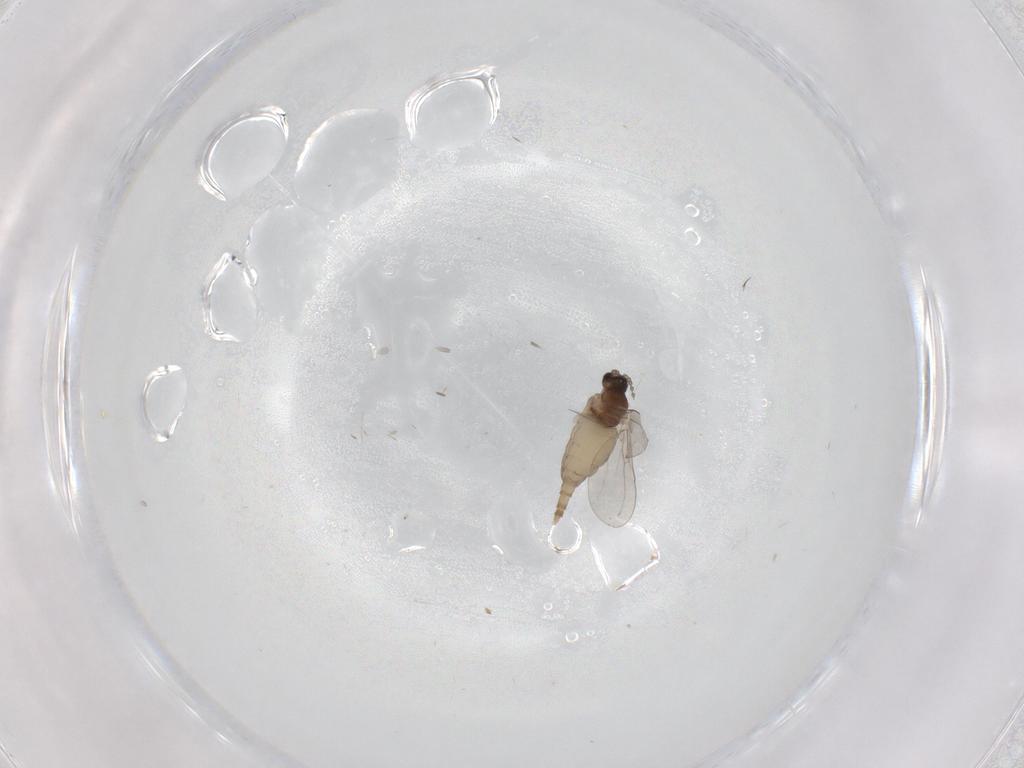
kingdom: Animalia
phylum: Arthropoda
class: Insecta
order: Diptera
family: Cecidomyiidae
